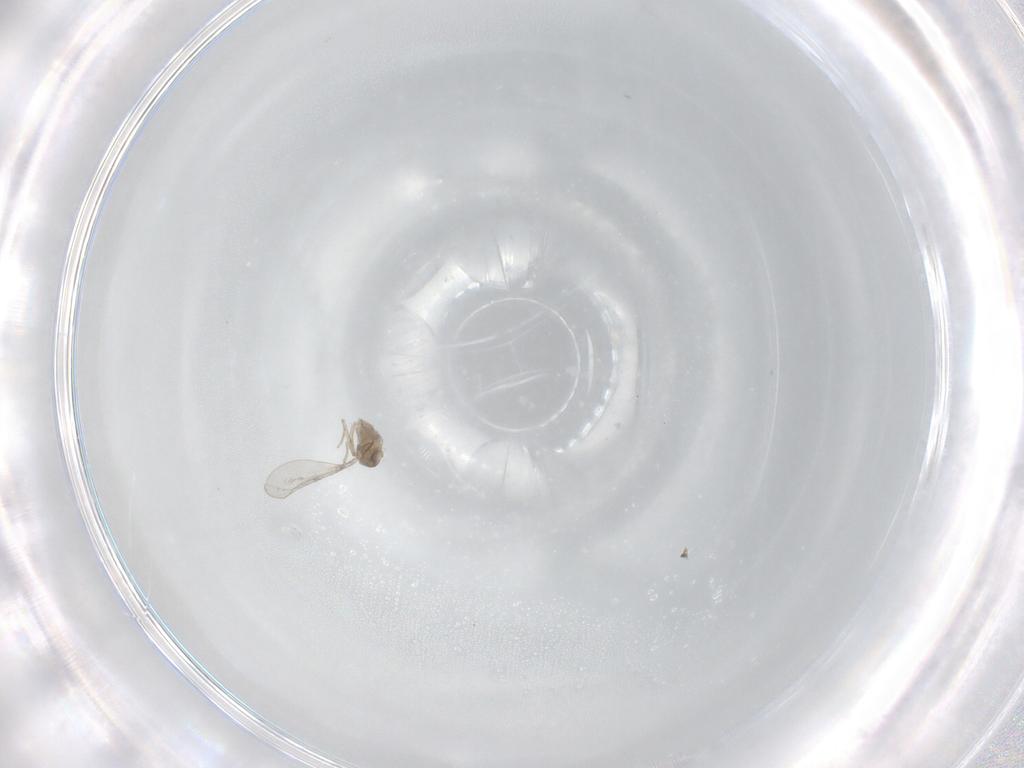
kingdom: Animalia
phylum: Arthropoda
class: Insecta
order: Diptera
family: Cecidomyiidae
